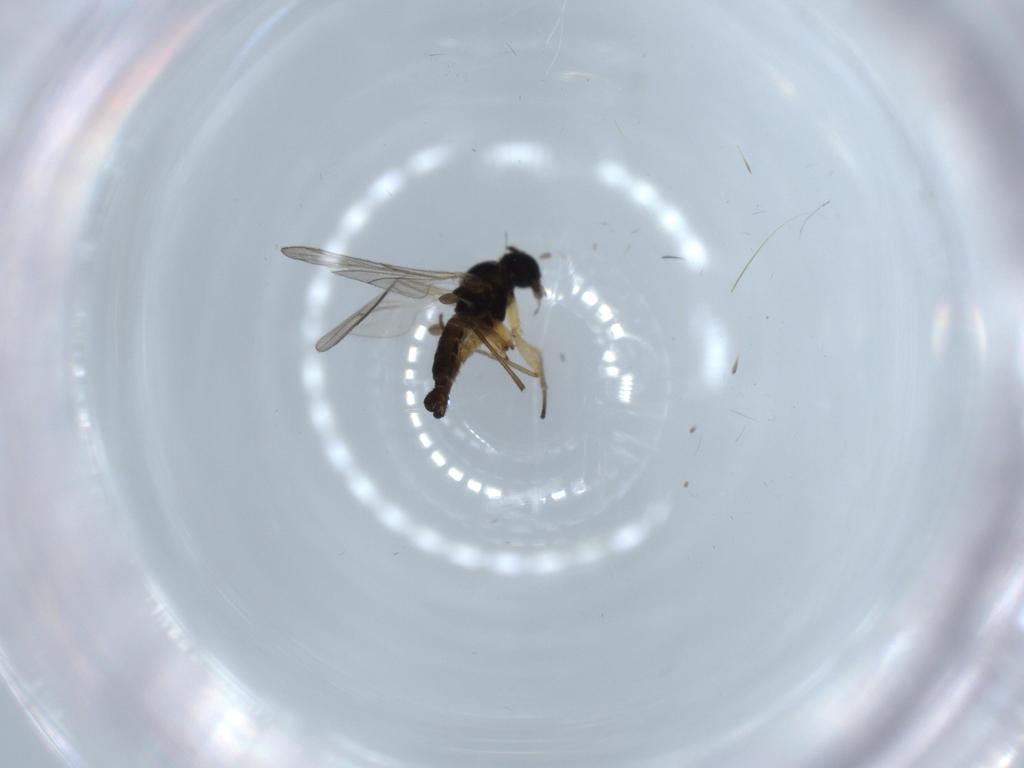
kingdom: Animalia
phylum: Arthropoda
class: Insecta
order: Diptera
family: Sciaridae
